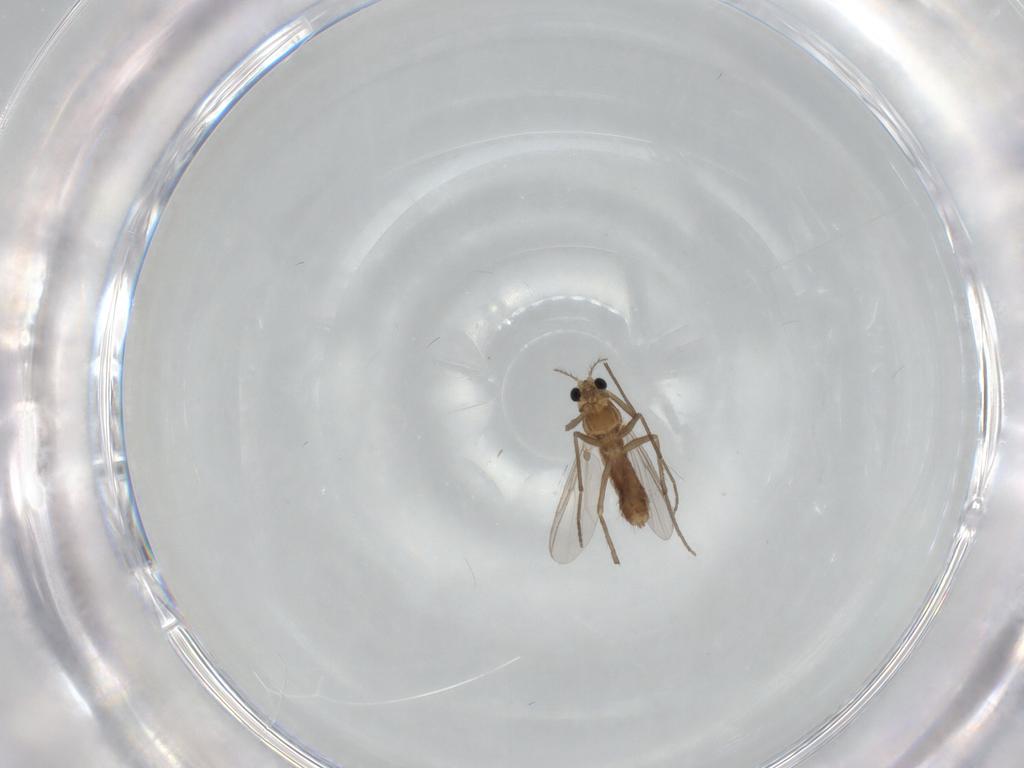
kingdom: Animalia
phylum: Arthropoda
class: Insecta
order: Diptera
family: Chironomidae
